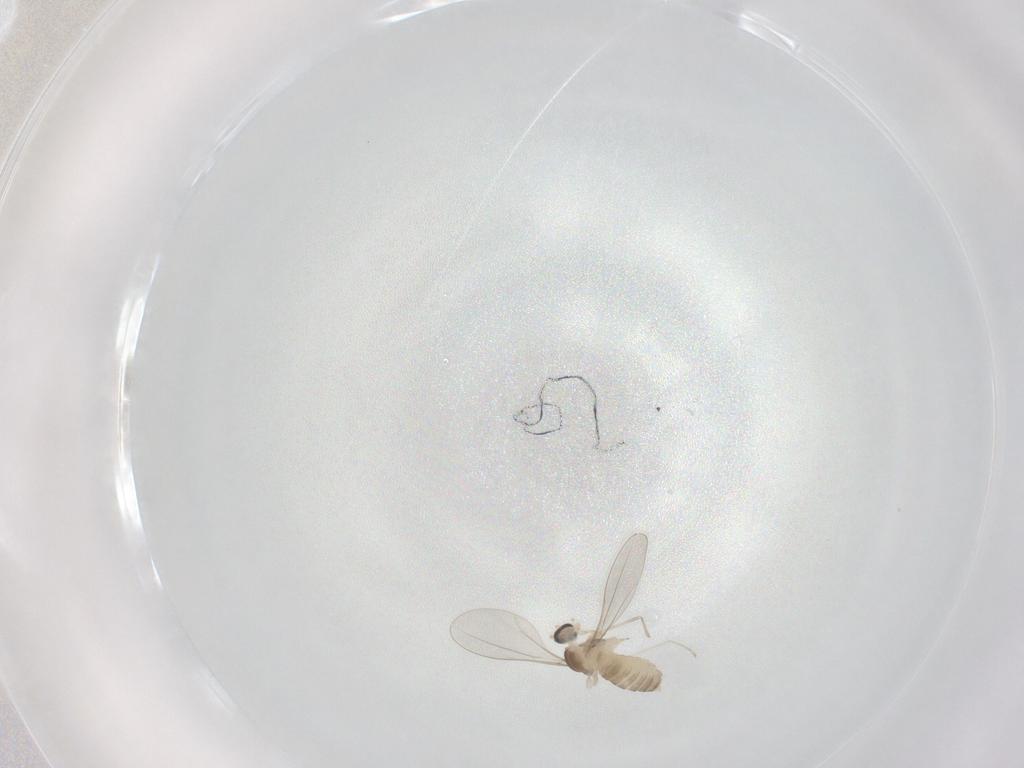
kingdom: Animalia
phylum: Arthropoda
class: Insecta
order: Diptera
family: Cecidomyiidae
